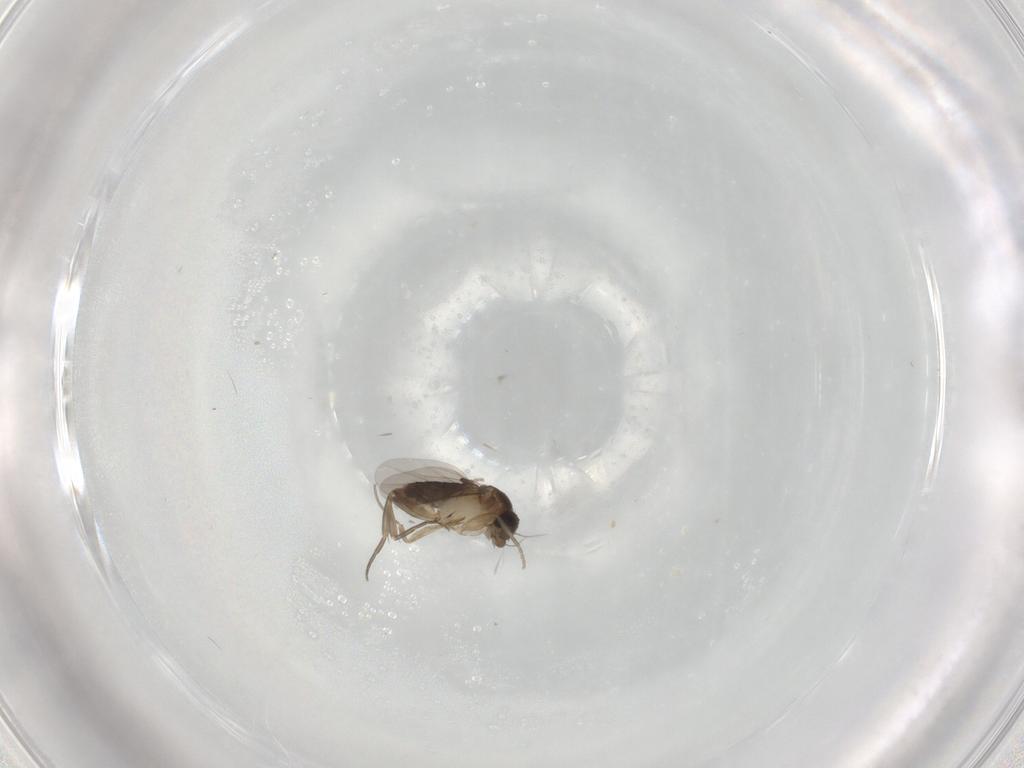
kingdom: Animalia
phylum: Arthropoda
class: Insecta
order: Diptera
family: Phoridae
